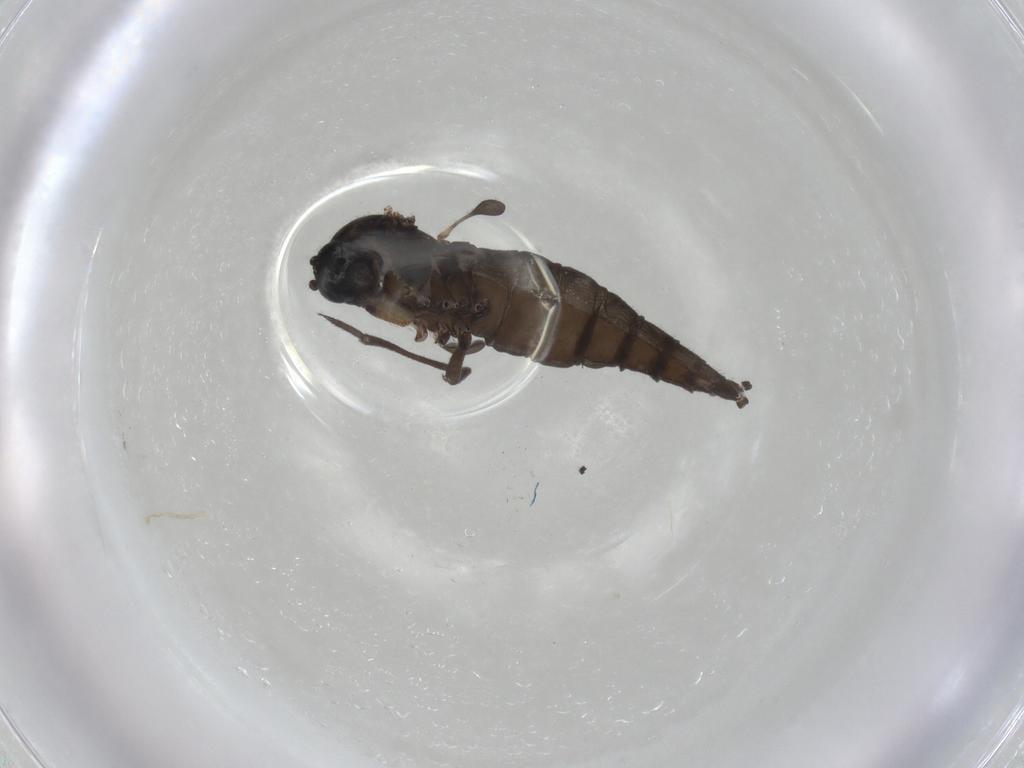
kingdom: Animalia
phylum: Arthropoda
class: Insecta
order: Diptera
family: Sciaridae
